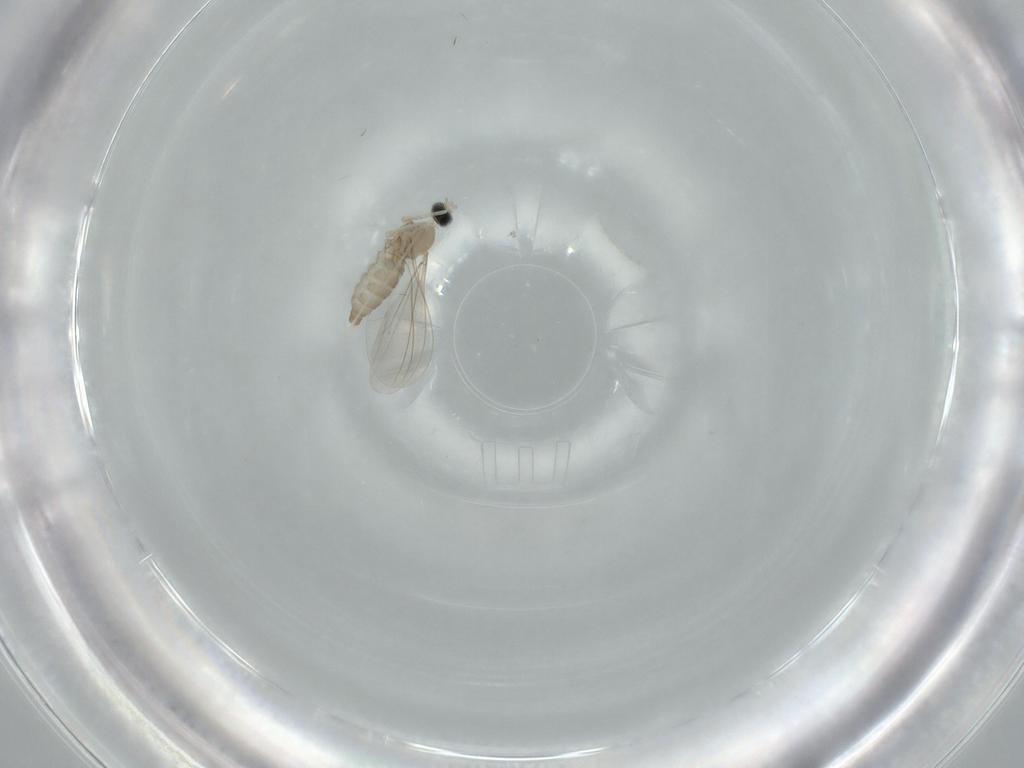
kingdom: Animalia
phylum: Arthropoda
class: Insecta
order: Diptera
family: Cecidomyiidae
